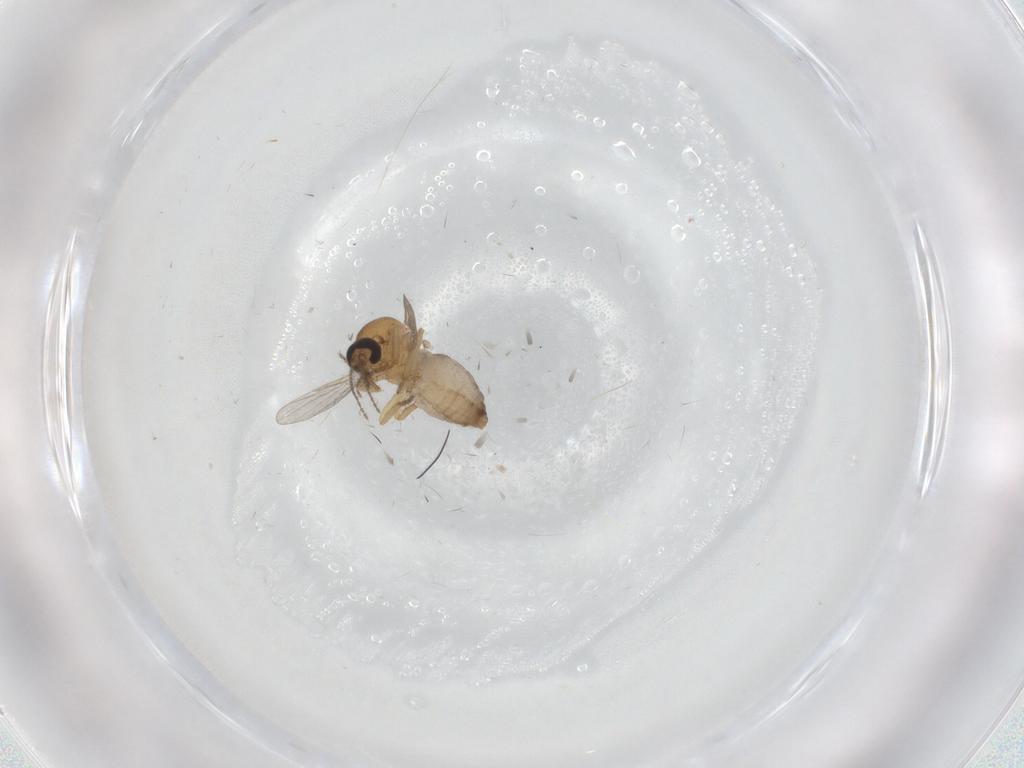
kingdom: Animalia
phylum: Arthropoda
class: Insecta
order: Diptera
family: Ceratopogonidae
